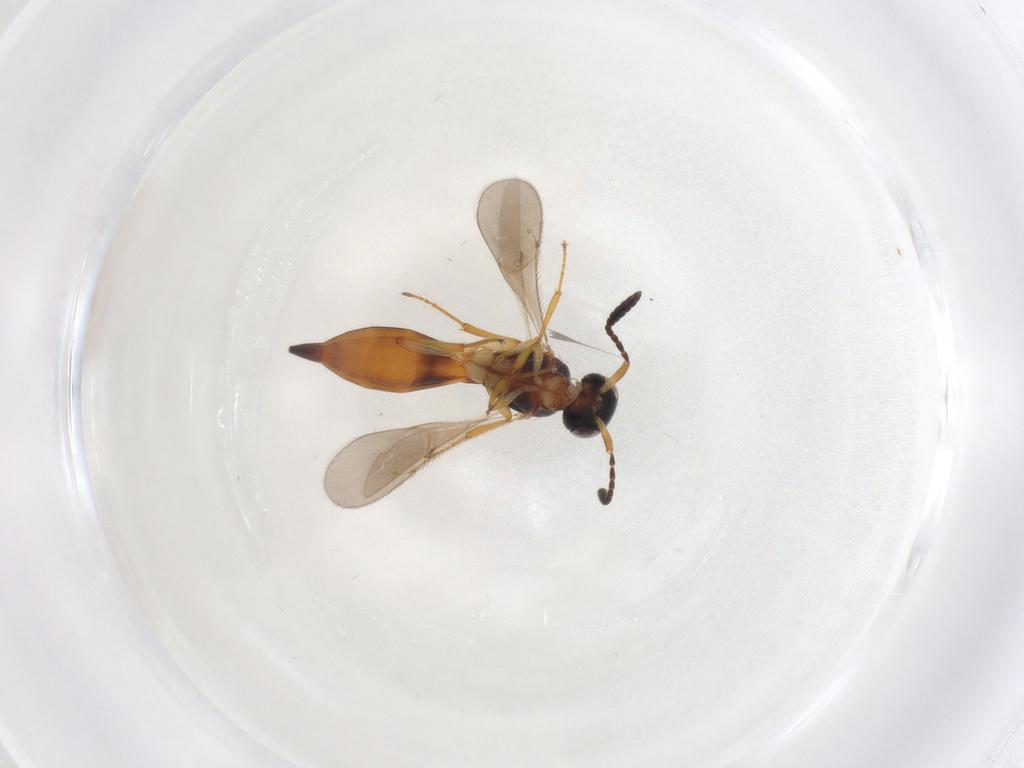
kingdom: Animalia
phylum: Arthropoda
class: Insecta
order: Hymenoptera
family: Scelionidae
